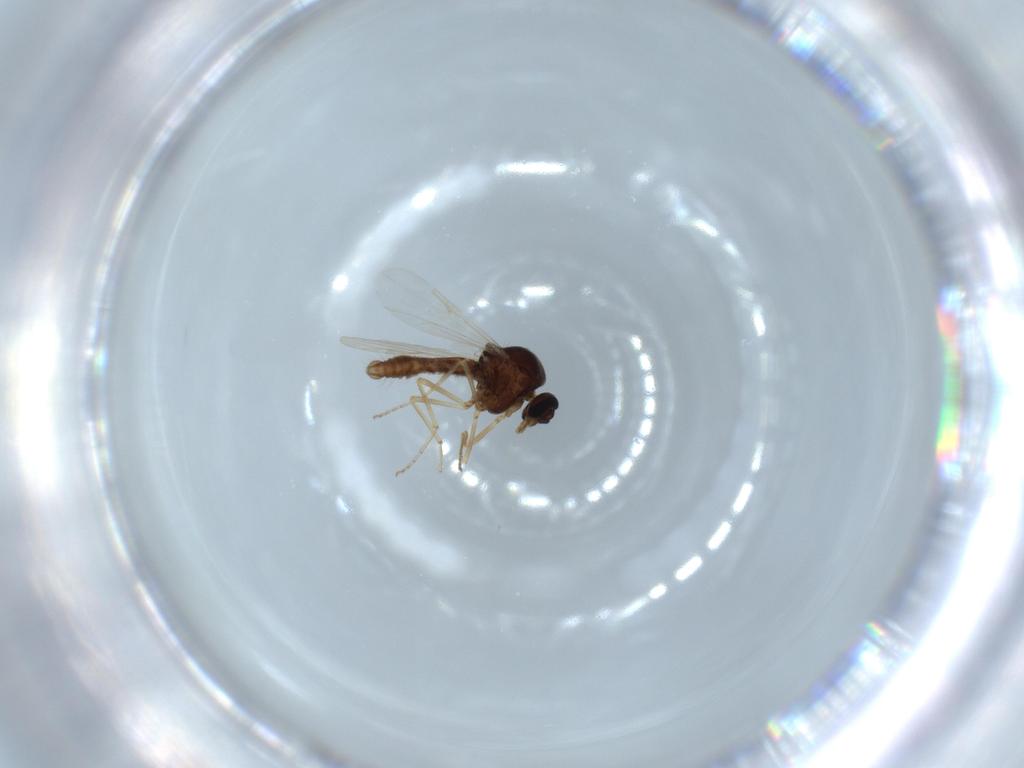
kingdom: Animalia
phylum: Arthropoda
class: Insecta
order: Diptera
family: Ceratopogonidae
